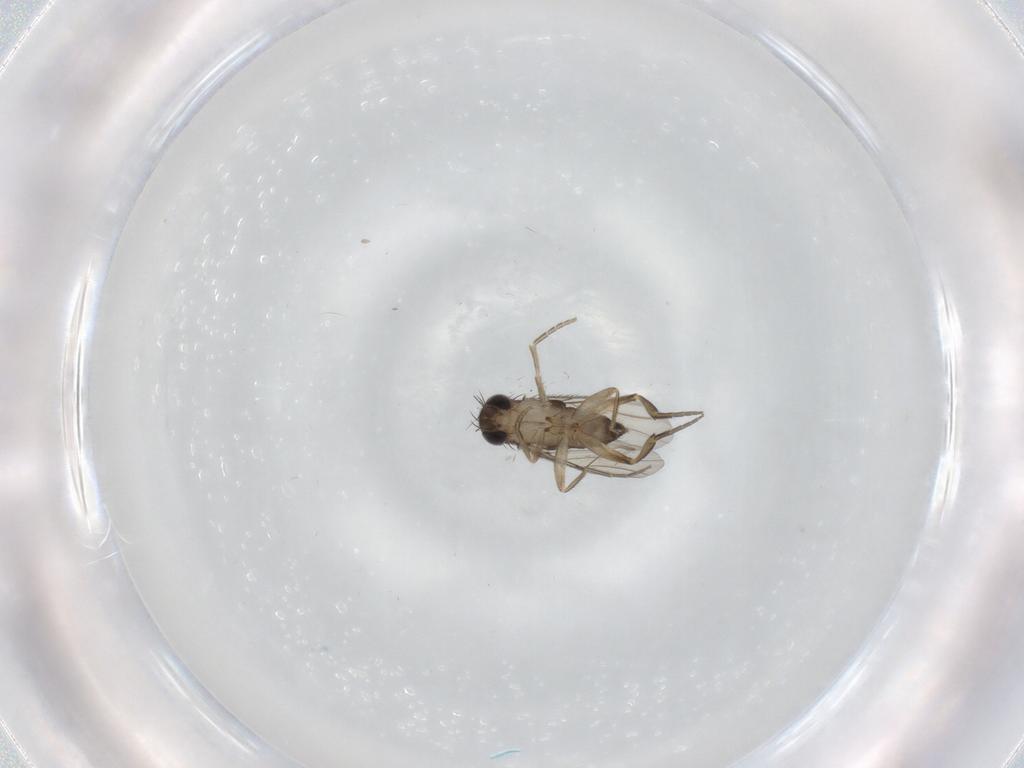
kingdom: Animalia
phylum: Arthropoda
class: Insecta
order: Diptera
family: Phoridae
